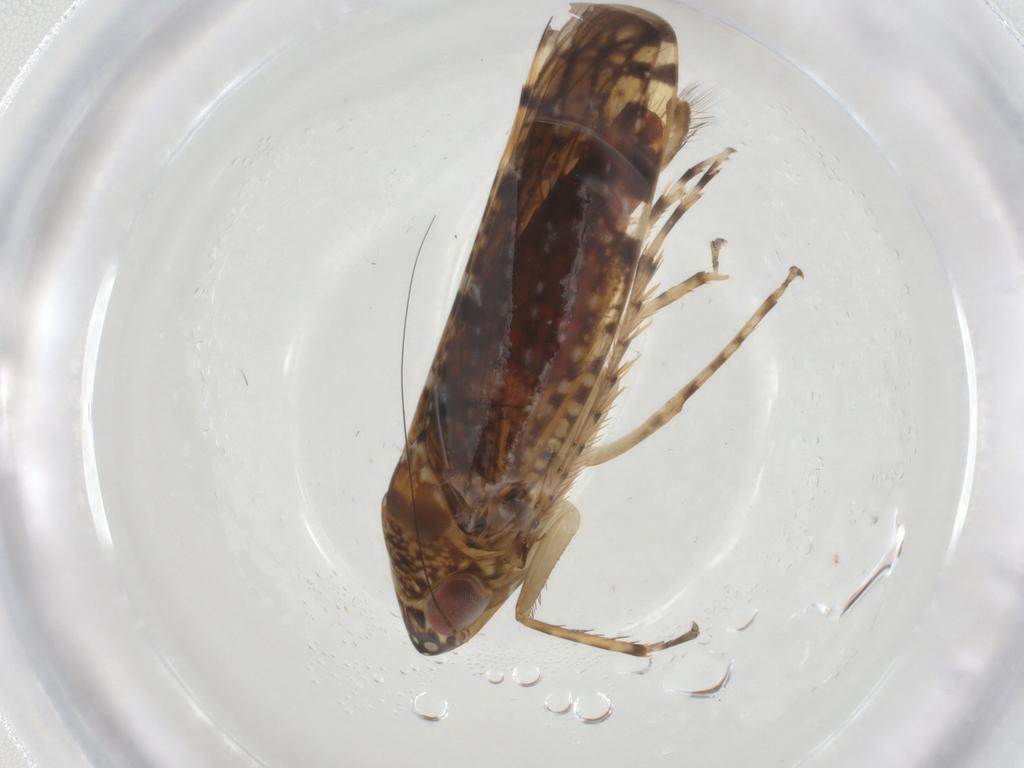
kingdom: Animalia
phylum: Arthropoda
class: Insecta
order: Hemiptera
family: Cicadellidae
